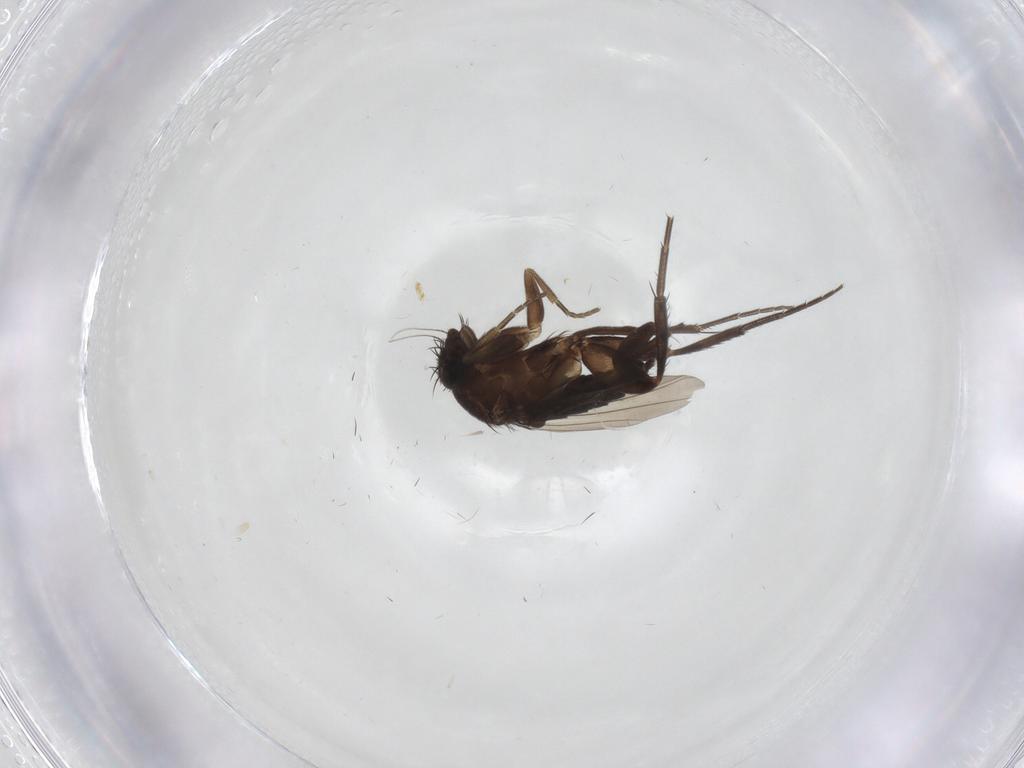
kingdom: Animalia
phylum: Arthropoda
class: Insecta
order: Diptera
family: Phoridae
